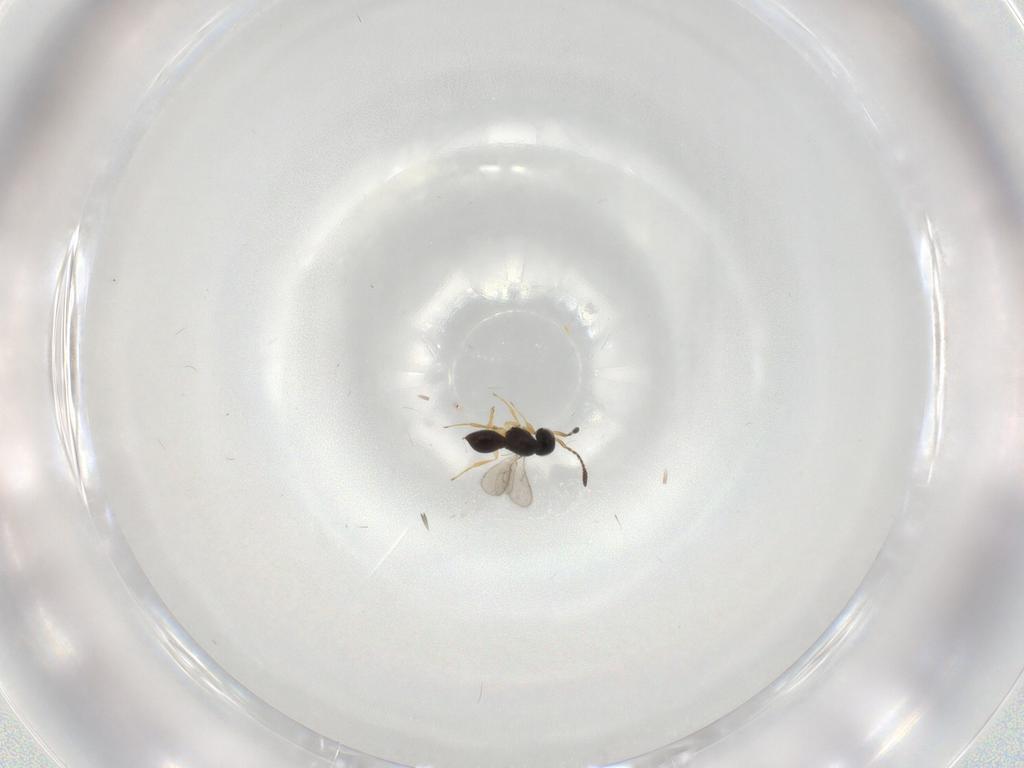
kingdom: Animalia
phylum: Arthropoda
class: Insecta
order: Hymenoptera
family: Scelionidae
